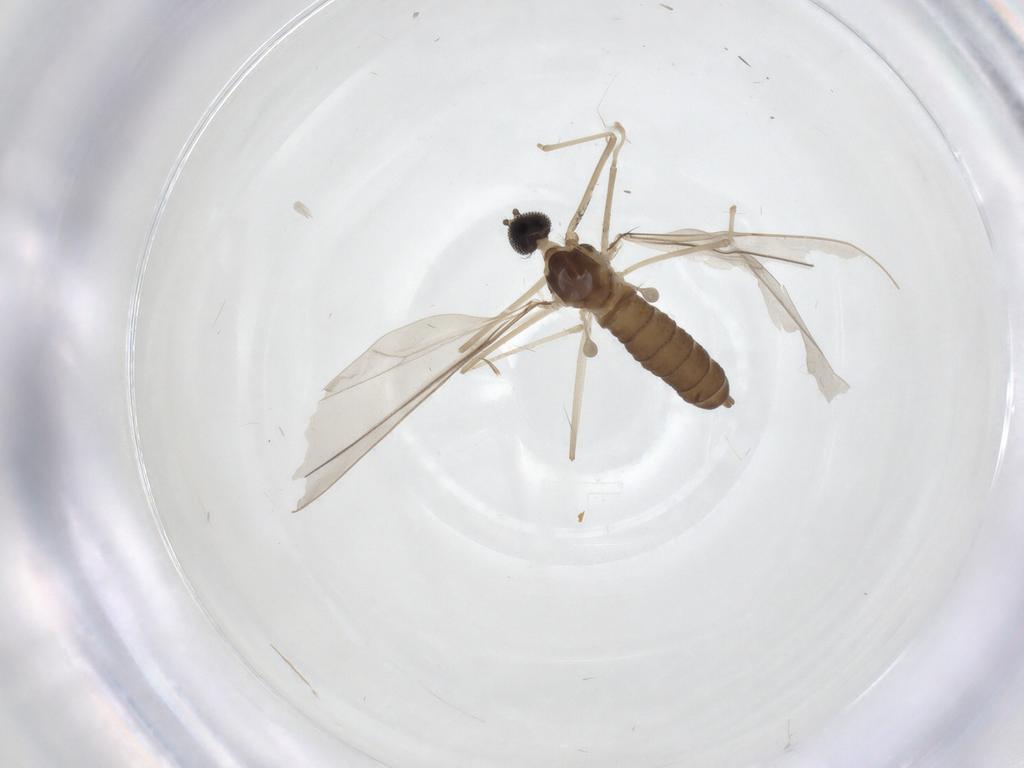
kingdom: Animalia
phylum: Arthropoda
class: Insecta
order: Diptera
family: Cecidomyiidae
